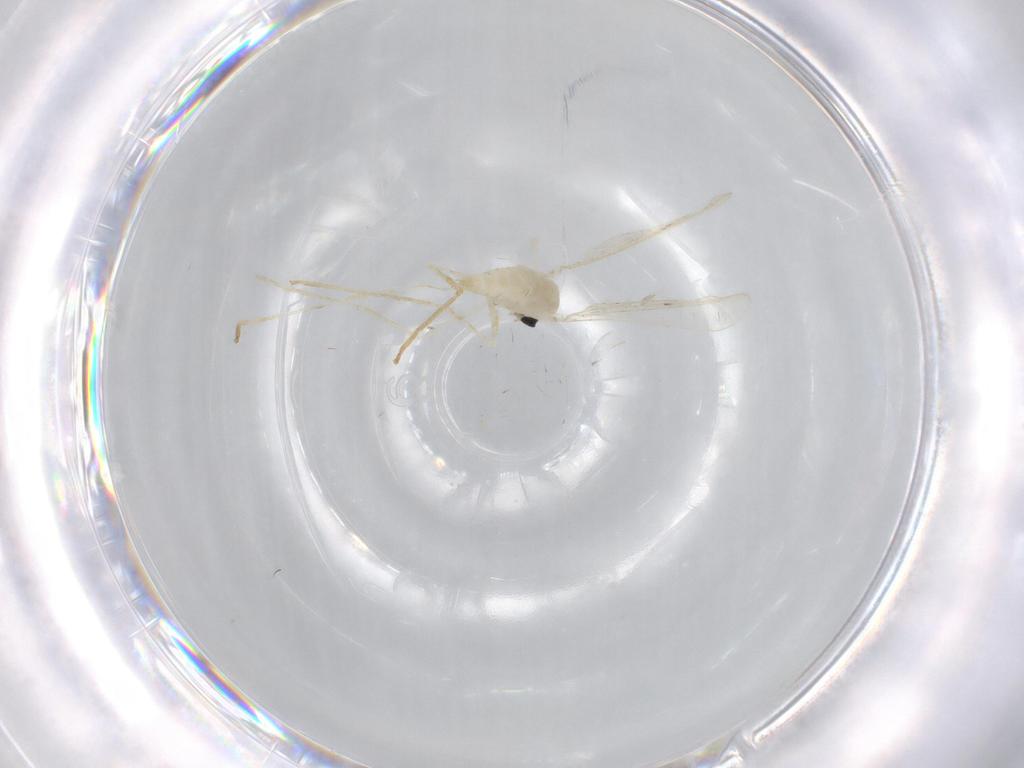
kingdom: Animalia
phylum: Arthropoda
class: Insecta
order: Diptera
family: Cecidomyiidae
